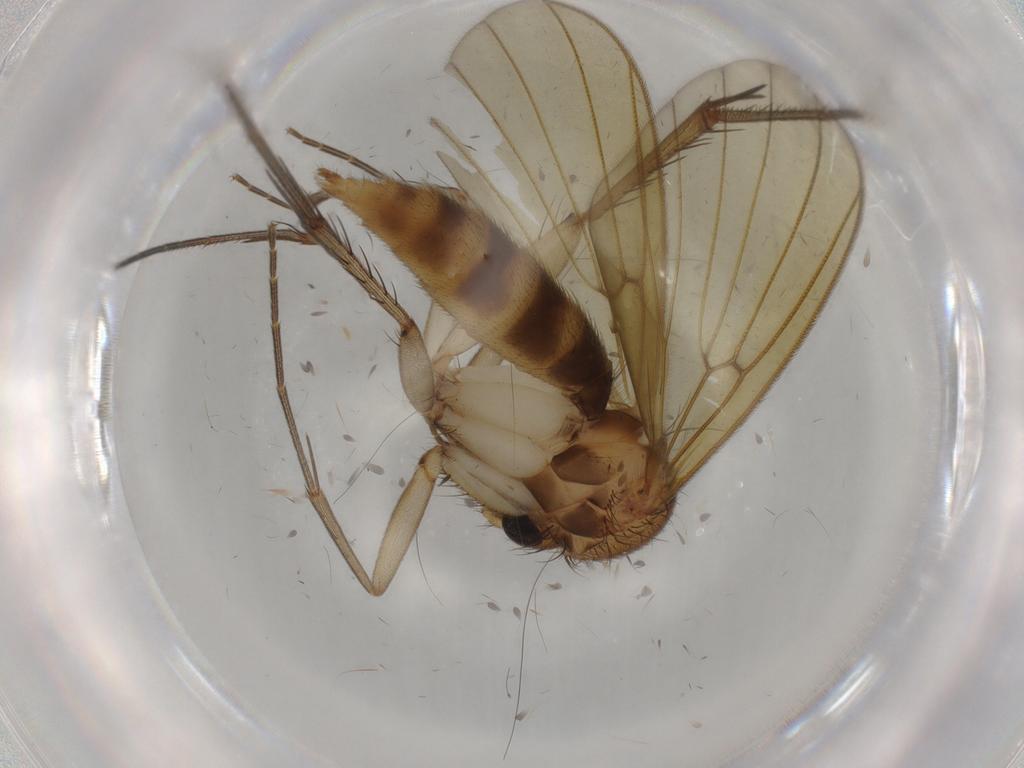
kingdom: Animalia
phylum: Arthropoda
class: Insecta
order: Diptera
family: Mycetophilidae
